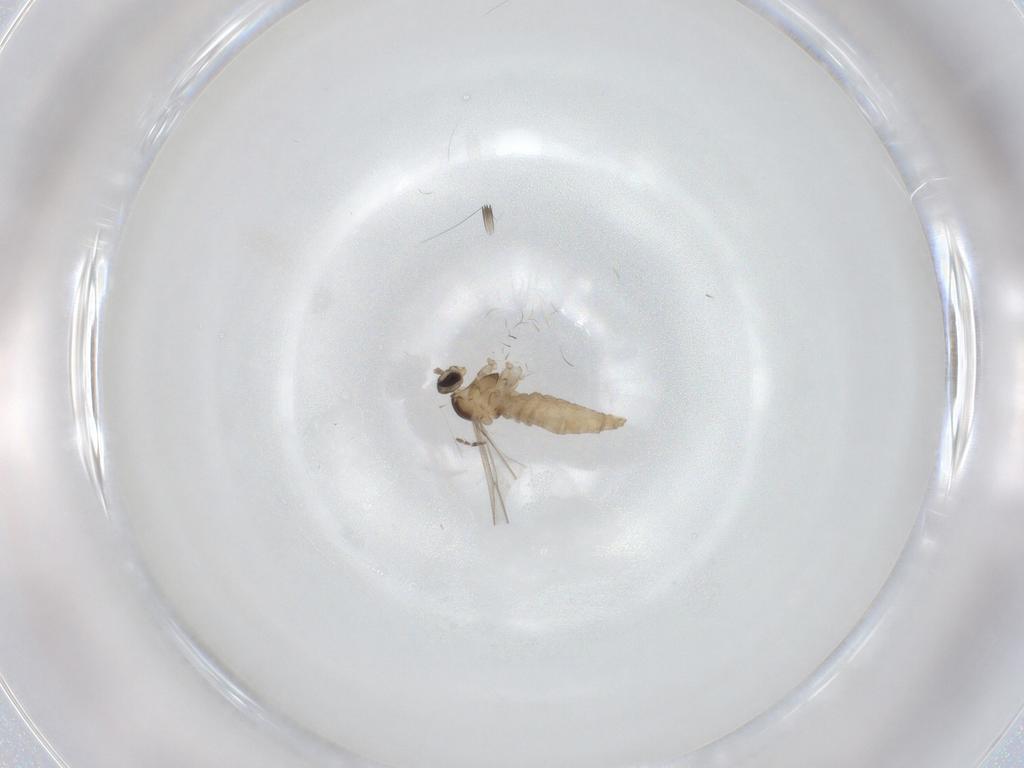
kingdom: Animalia
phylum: Arthropoda
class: Insecta
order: Diptera
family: Cecidomyiidae
